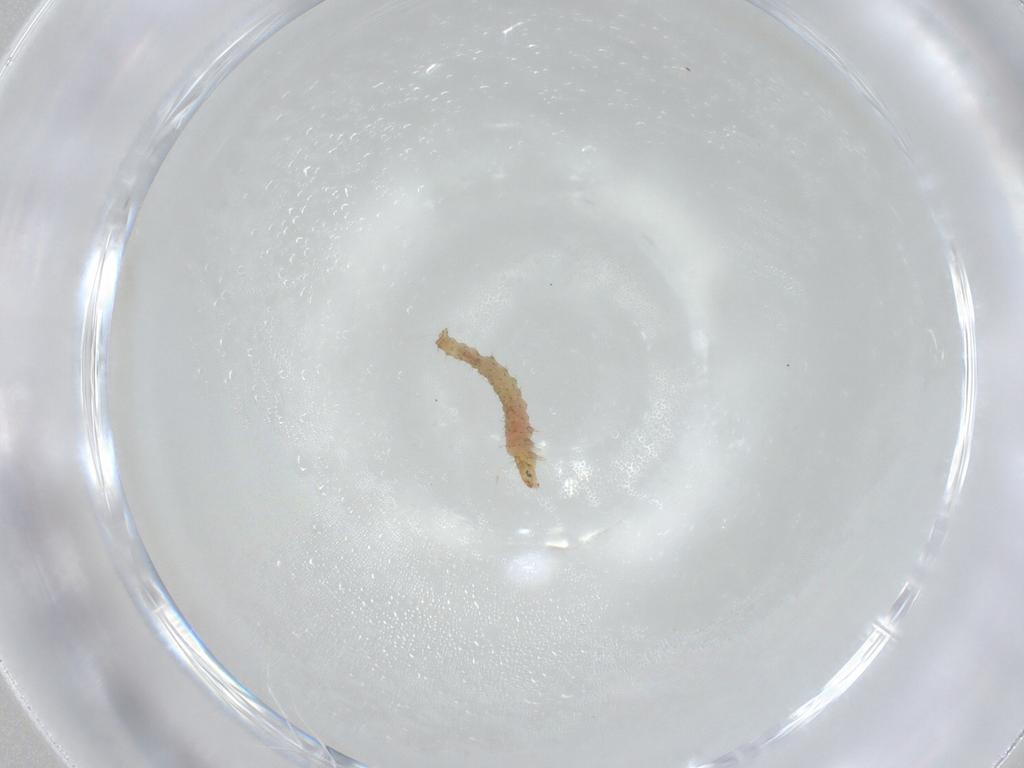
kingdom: Animalia
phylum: Arthropoda
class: Insecta
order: Lepidoptera
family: Gelechiidae
